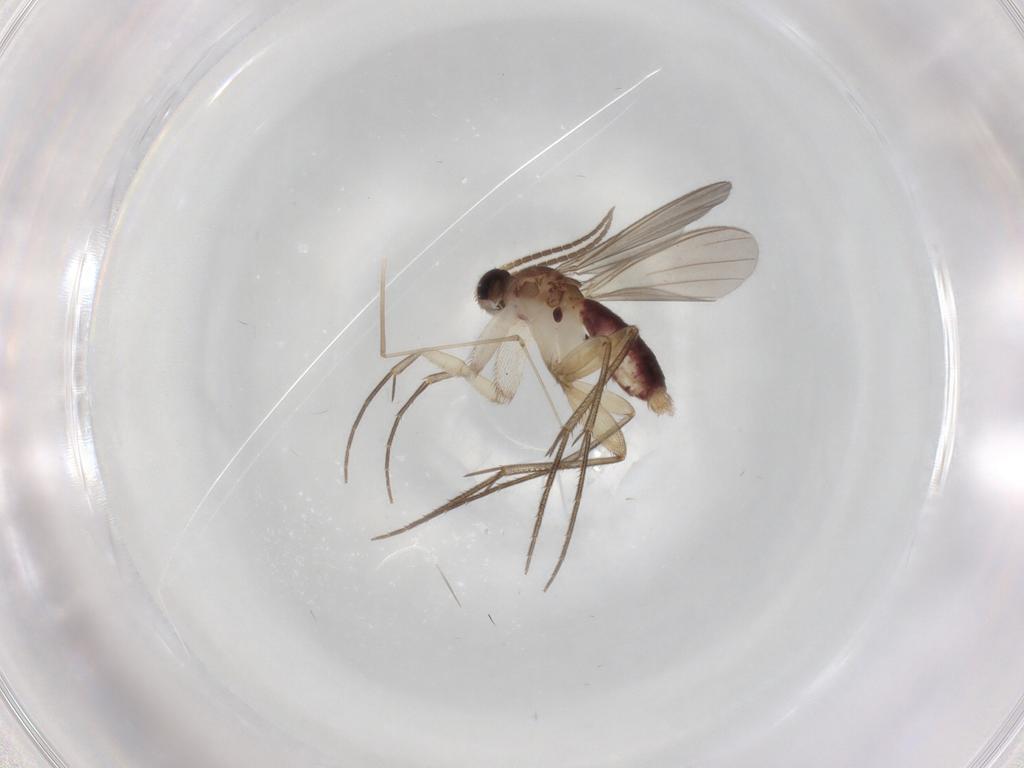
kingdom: Animalia
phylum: Arthropoda
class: Insecta
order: Diptera
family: Mycetophilidae
